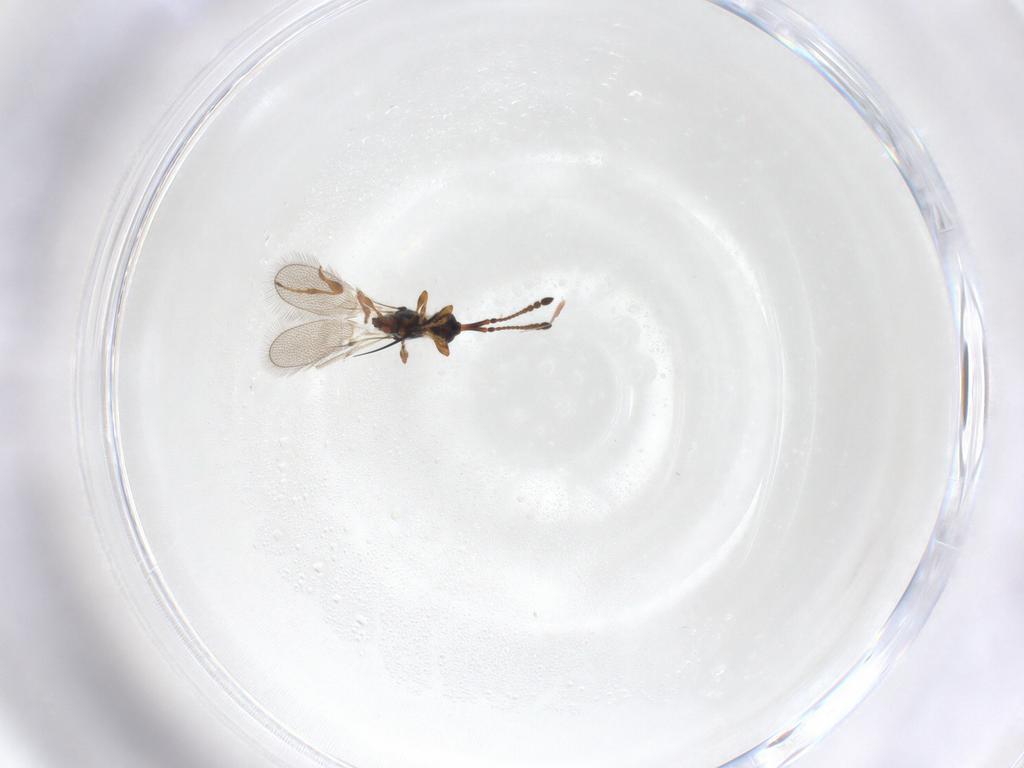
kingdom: Animalia
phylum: Arthropoda
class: Insecta
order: Hymenoptera
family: Diapriidae
